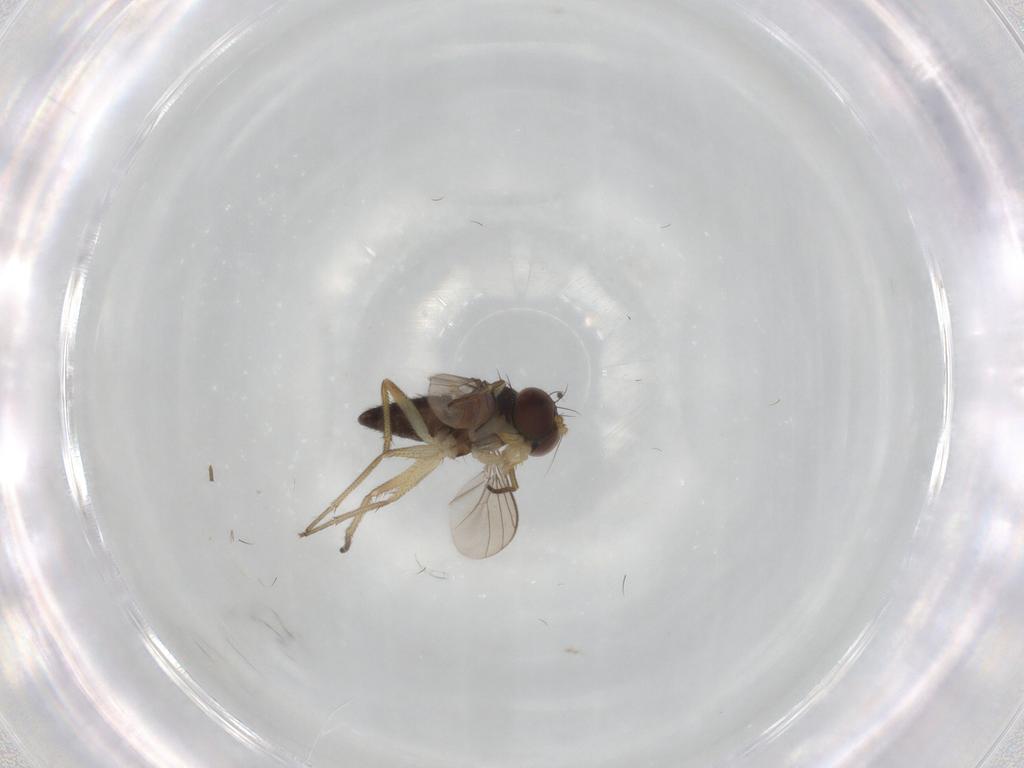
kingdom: Animalia
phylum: Arthropoda
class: Insecta
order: Diptera
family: Dolichopodidae
